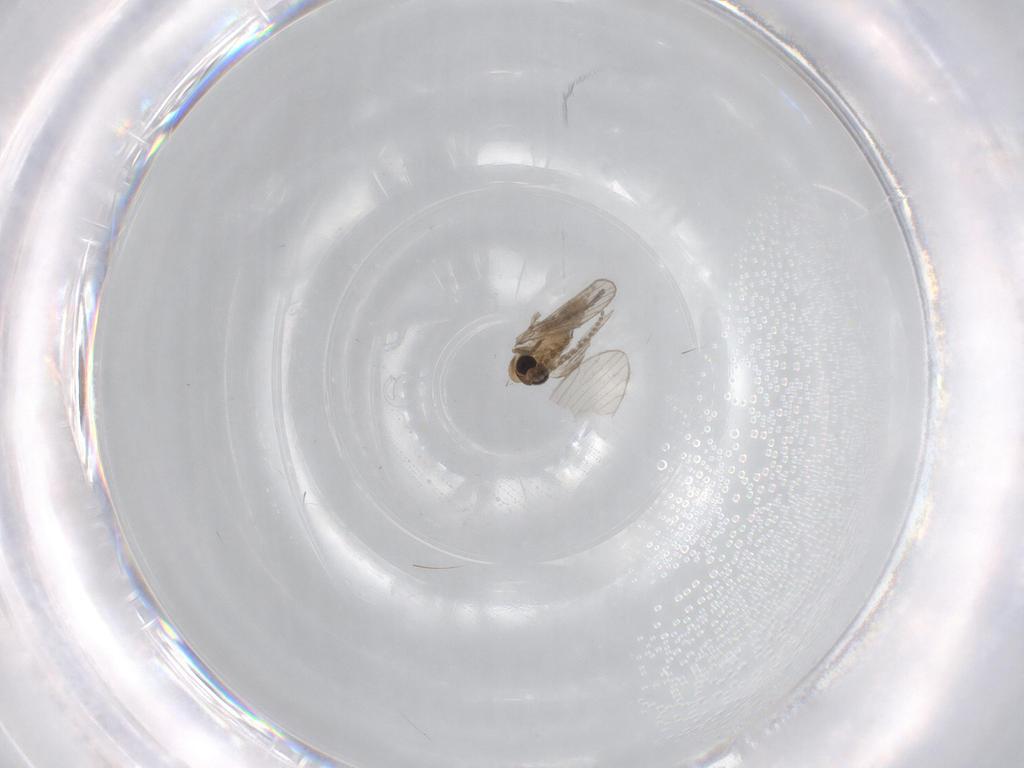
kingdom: Animalia
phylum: Arthropoda
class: Insecta
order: Diptera
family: Psychodidae
